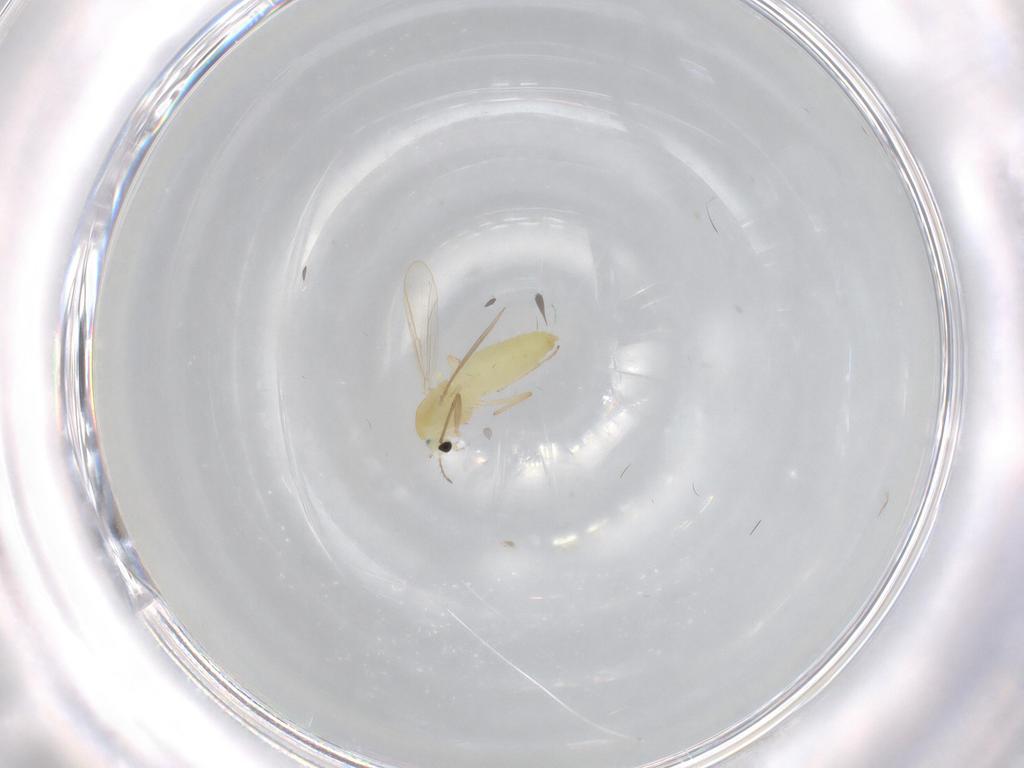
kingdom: Animalia
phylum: Arthropoda
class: Insecta
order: Diptera
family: Chironomidae
